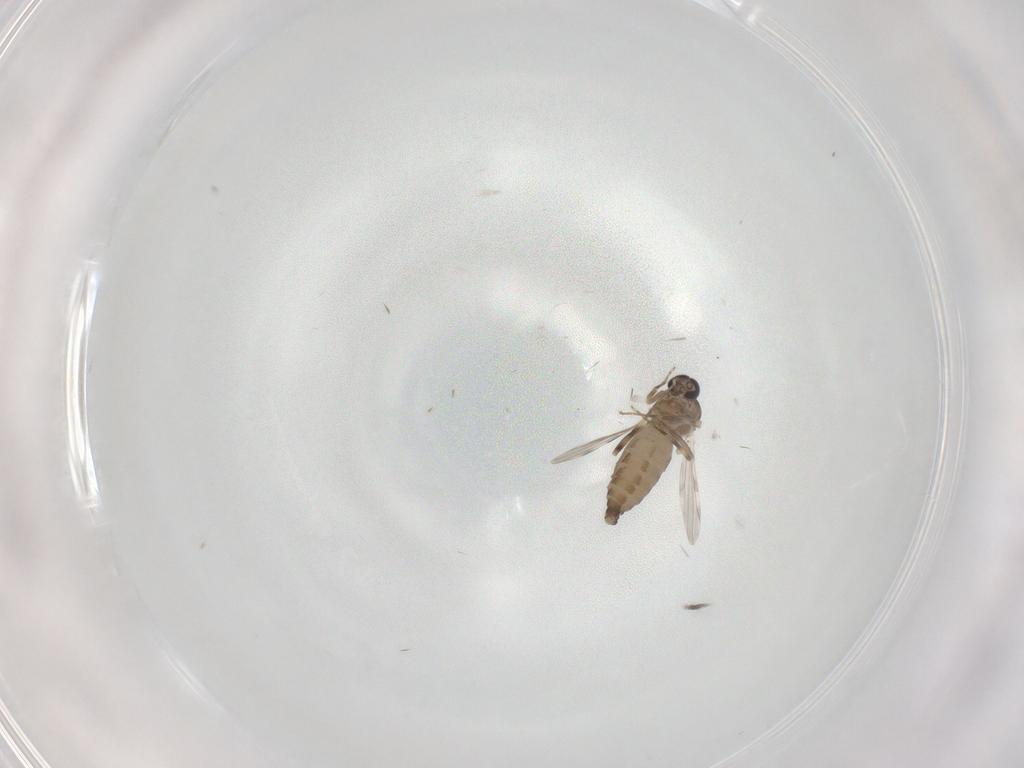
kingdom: Animalia
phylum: Arthropoda
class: Insecta
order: Diptera
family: Ceratopogonidae
